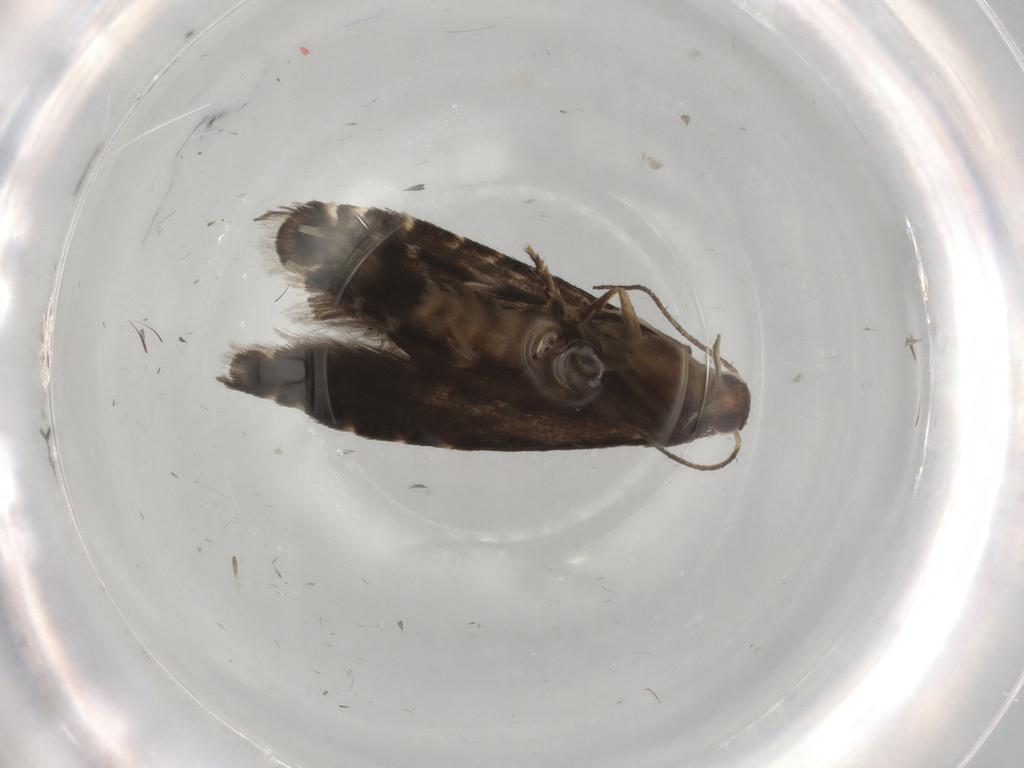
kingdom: Animalia
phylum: Arthropoda
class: Insecta
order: Lepidoptera
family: Glyphipterigidae
